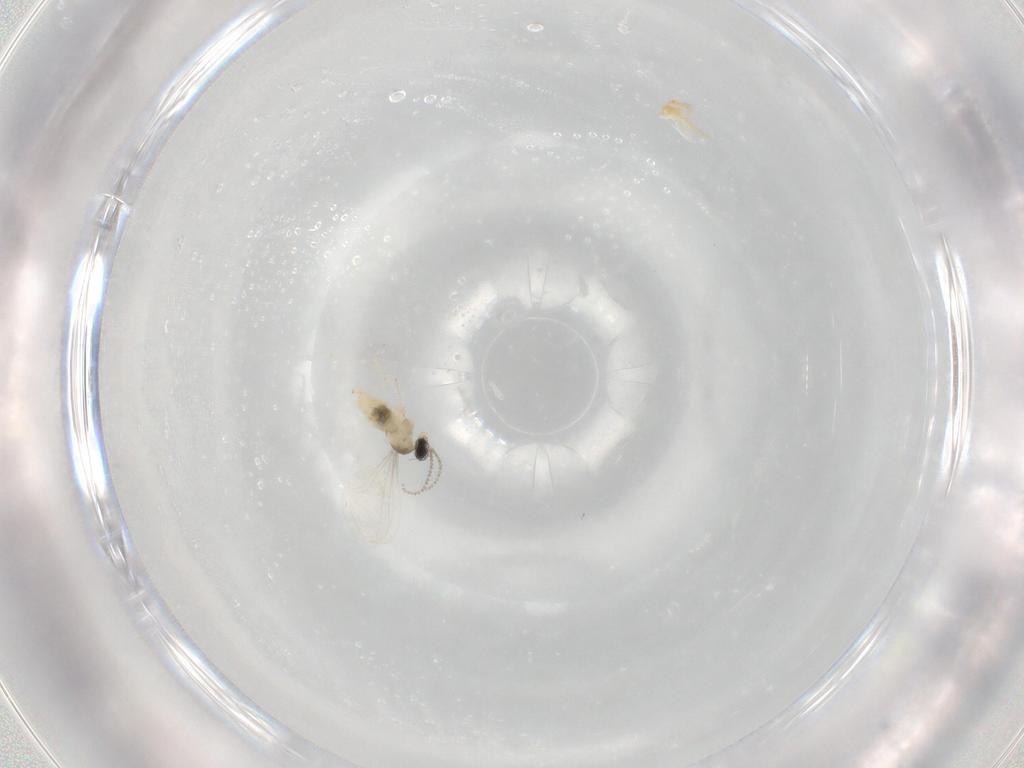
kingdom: Animalia
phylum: Arthropoda
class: Insecta
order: Diptera
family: Cecidomyiidae
